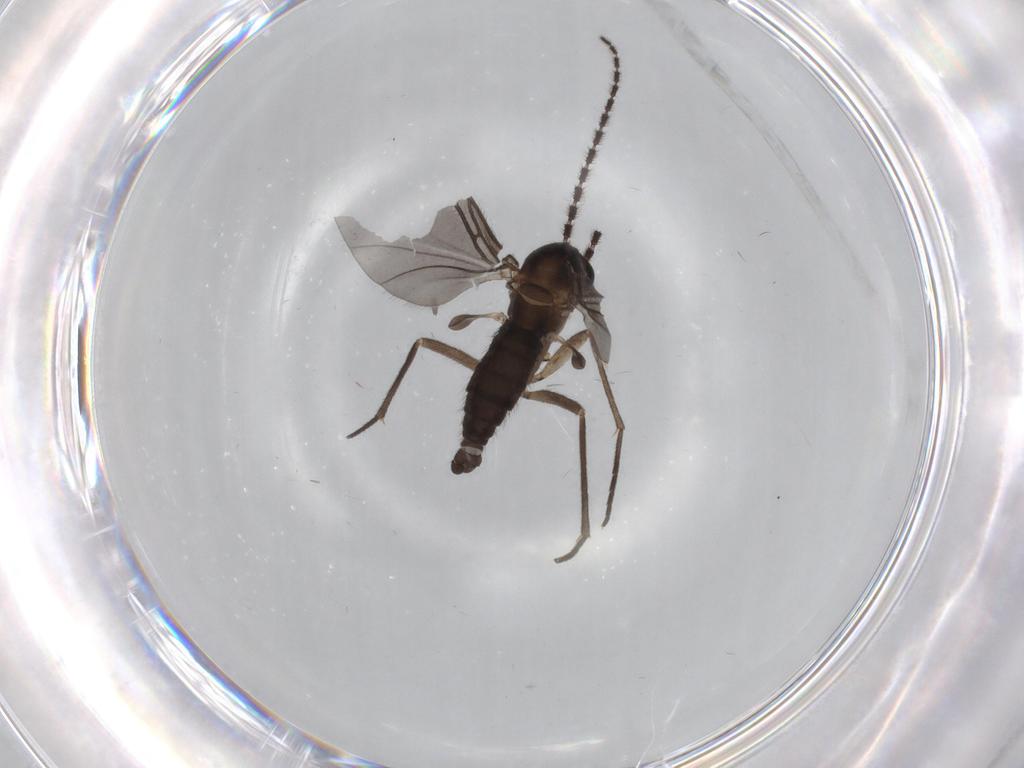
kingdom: Animalia
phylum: Arthropoda
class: Insecta
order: Diptera
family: Sciaridae
